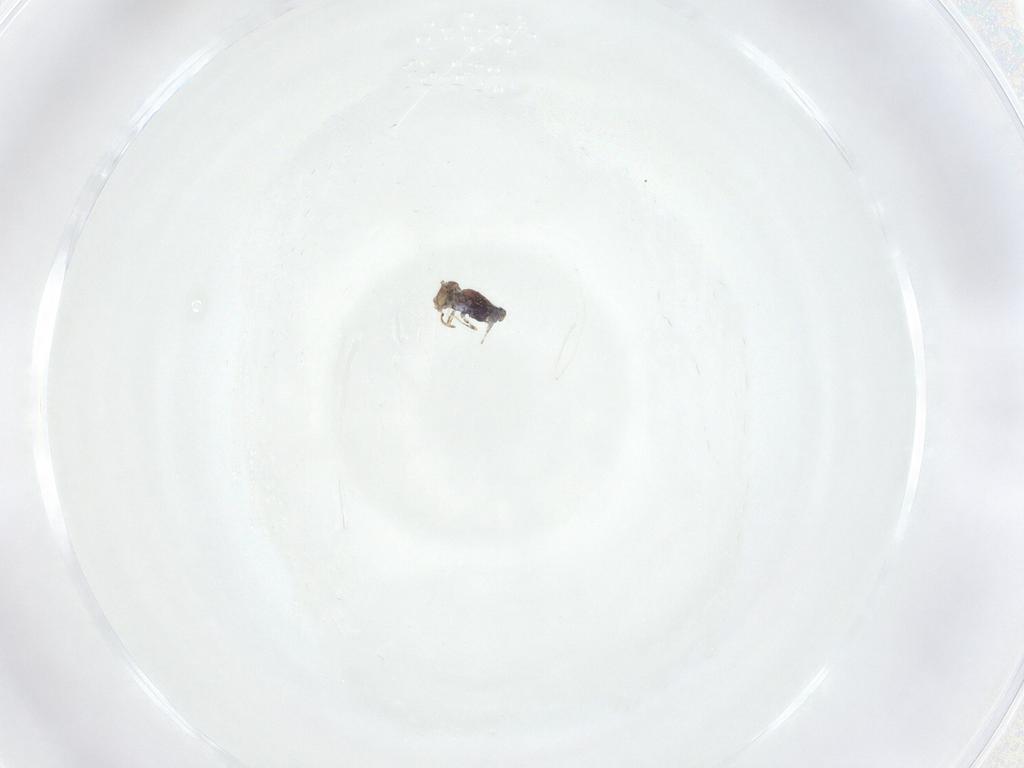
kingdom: Animalia
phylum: Arthropoda
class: Collembola
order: Symphypleona
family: Bourletiellidae
